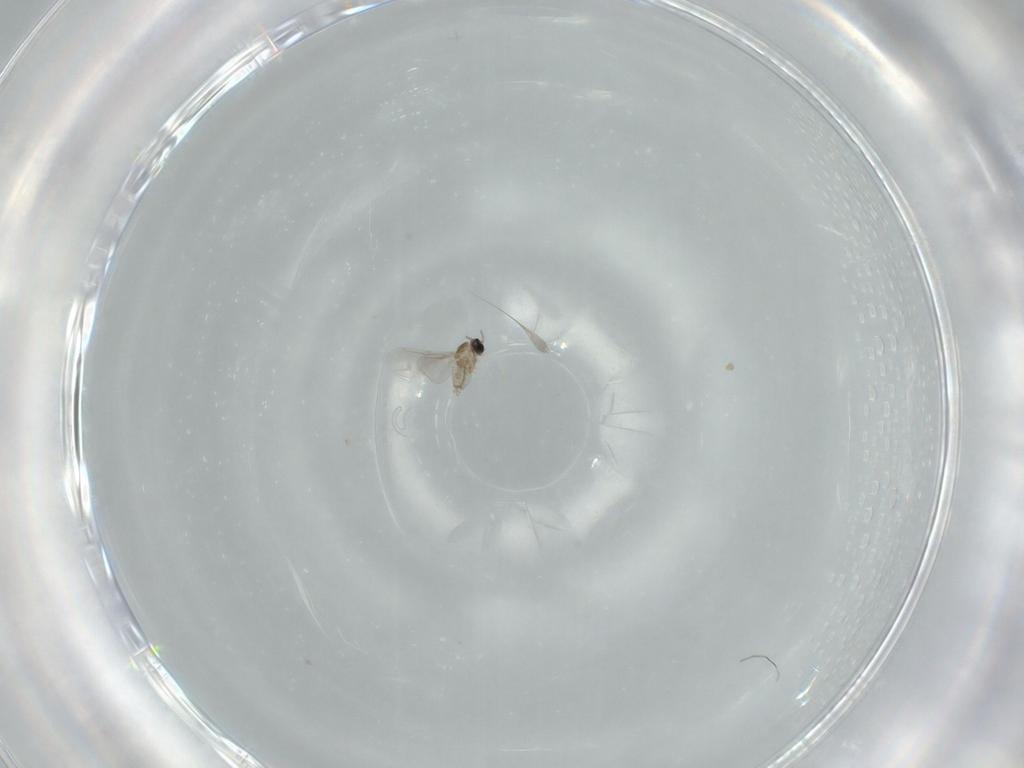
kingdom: Animalia
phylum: Arthropoda
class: Insecta
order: Diptera
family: Cecidomyiidae
